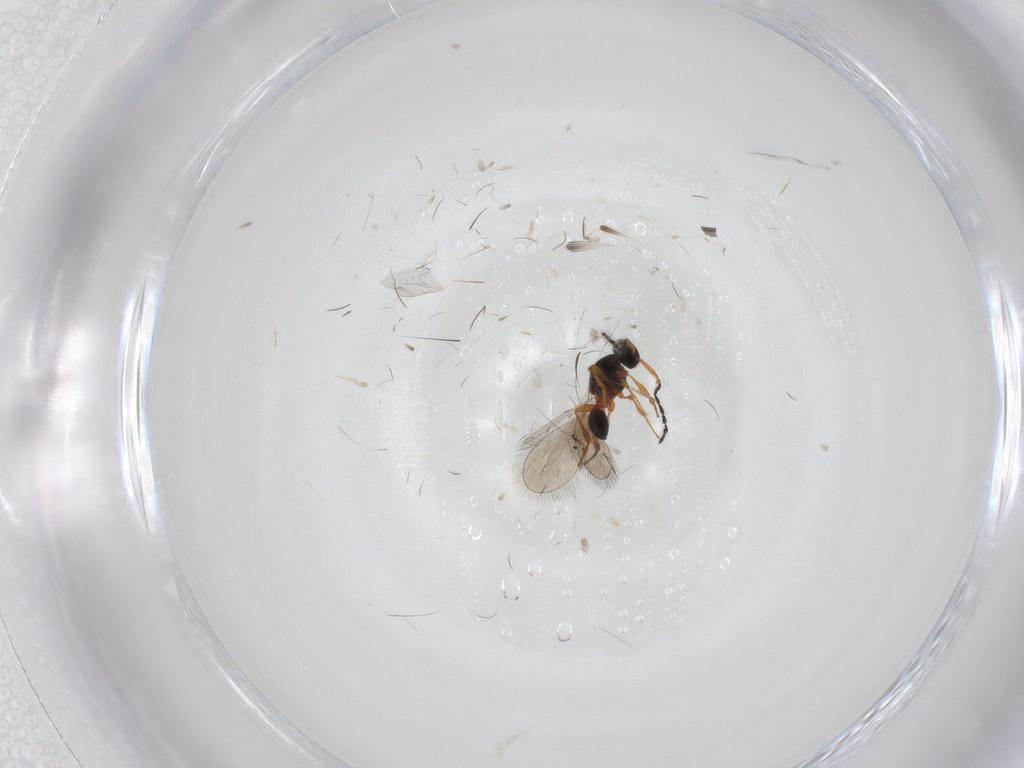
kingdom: Animalia
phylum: Arthropoda
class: Insecta
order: Hymenoptera
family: Platygastridae
